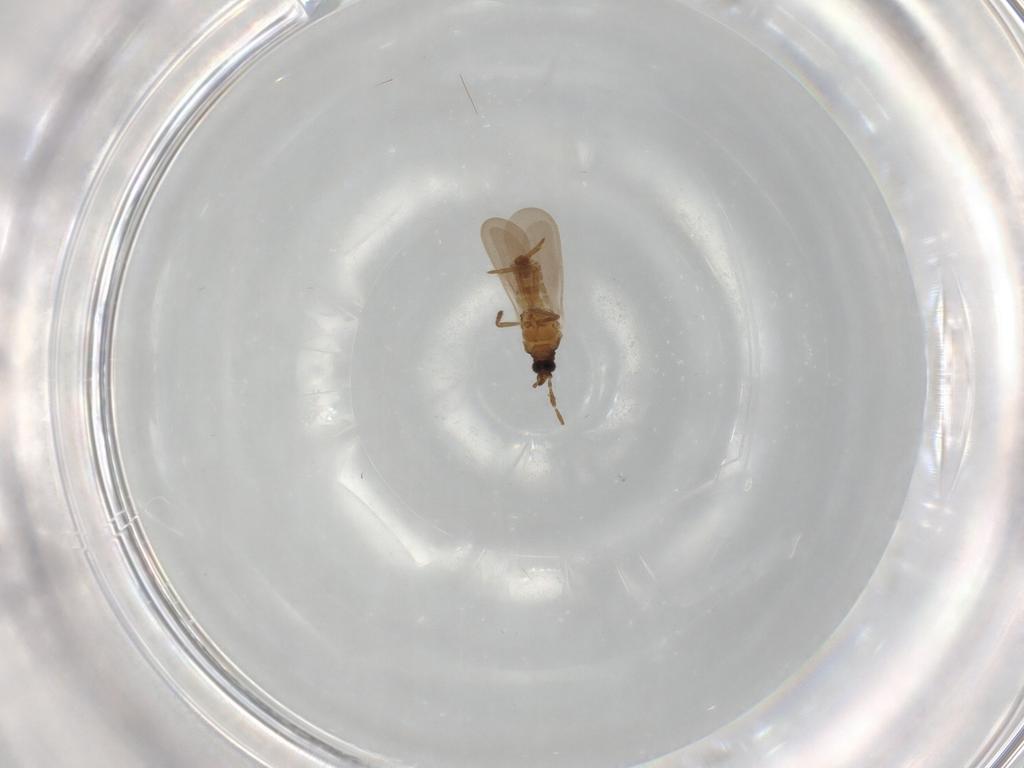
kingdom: Animalia
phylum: Arthropoda
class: Insecta
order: Hemiptera
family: Enicocephalidae
